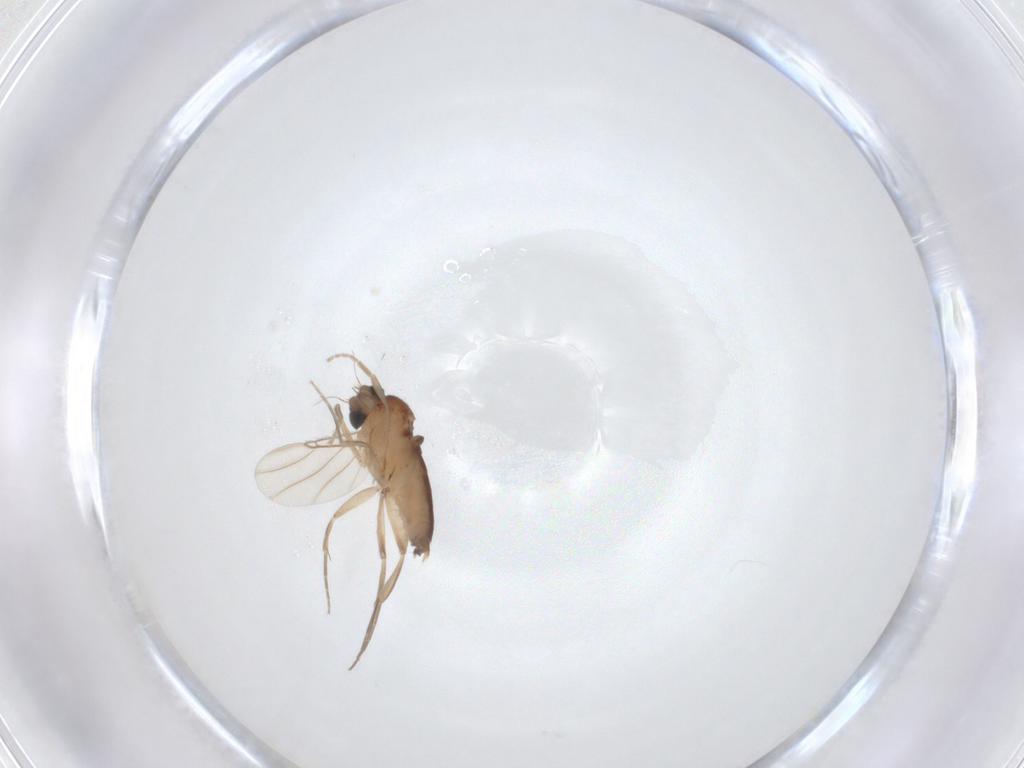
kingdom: Animalia
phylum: Arthropoda
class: Insecta
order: Diptera
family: Phoridae
